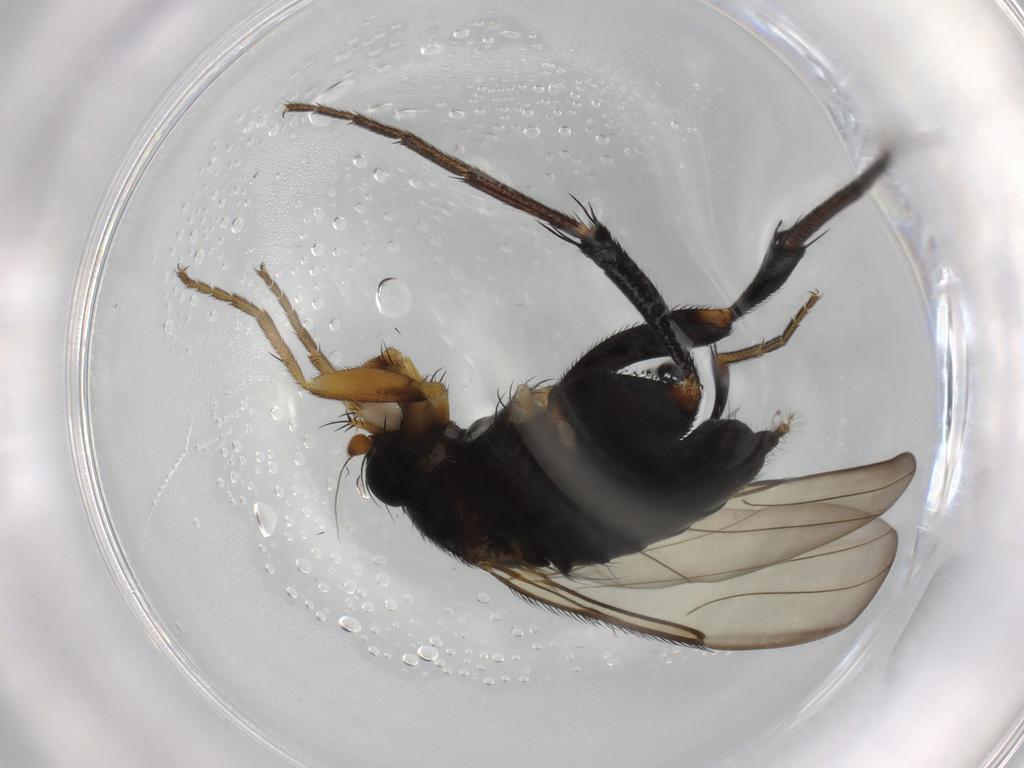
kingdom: Animalia
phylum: Arthropoda
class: Insecta
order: Diptera
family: Phoridae
